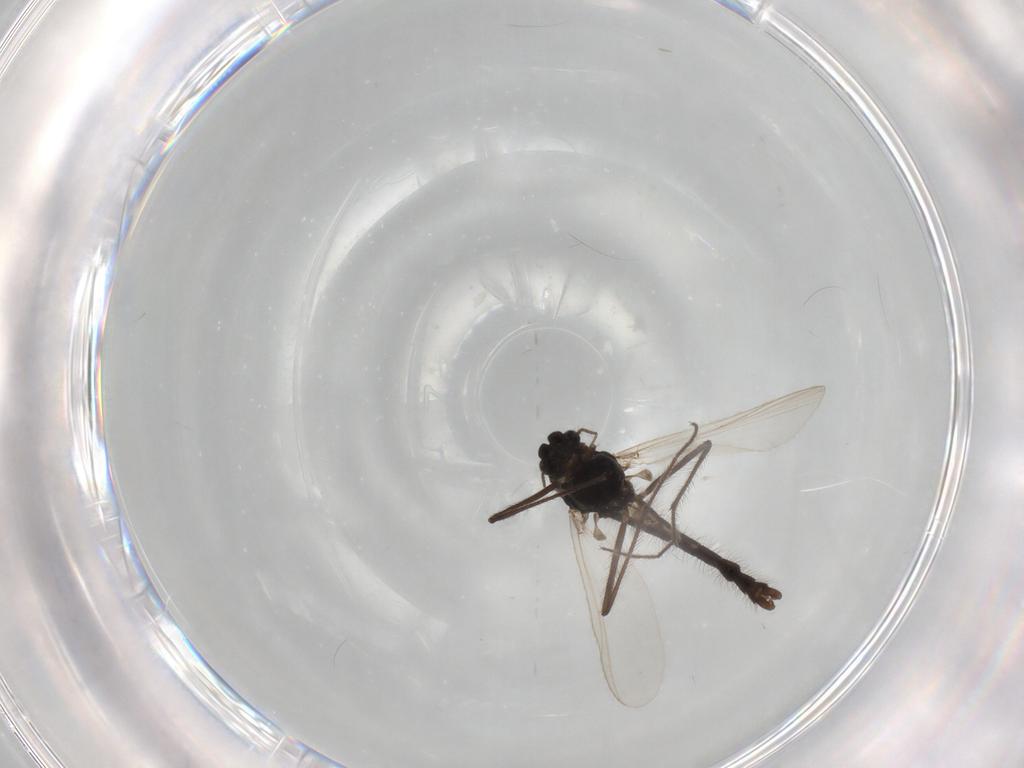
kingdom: Animalia
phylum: Arthropoda
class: Insecta
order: Diptera
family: Chironomidae
